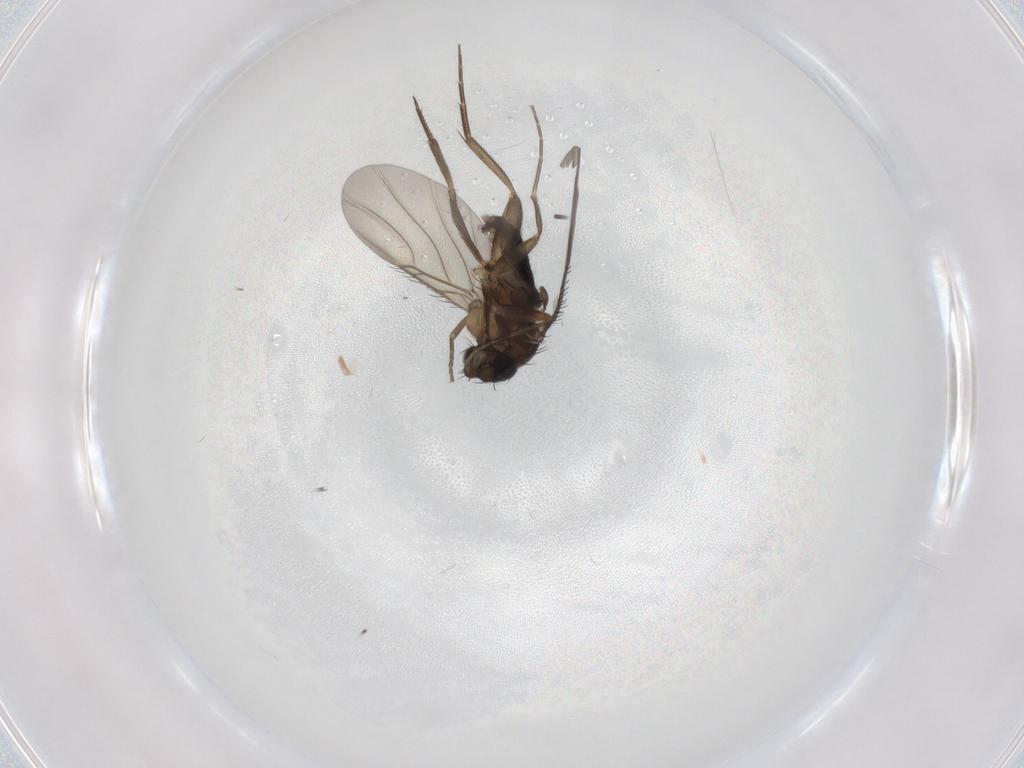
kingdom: Animalia
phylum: Arthropoda
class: Insecta
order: Diptera
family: Phoridae
